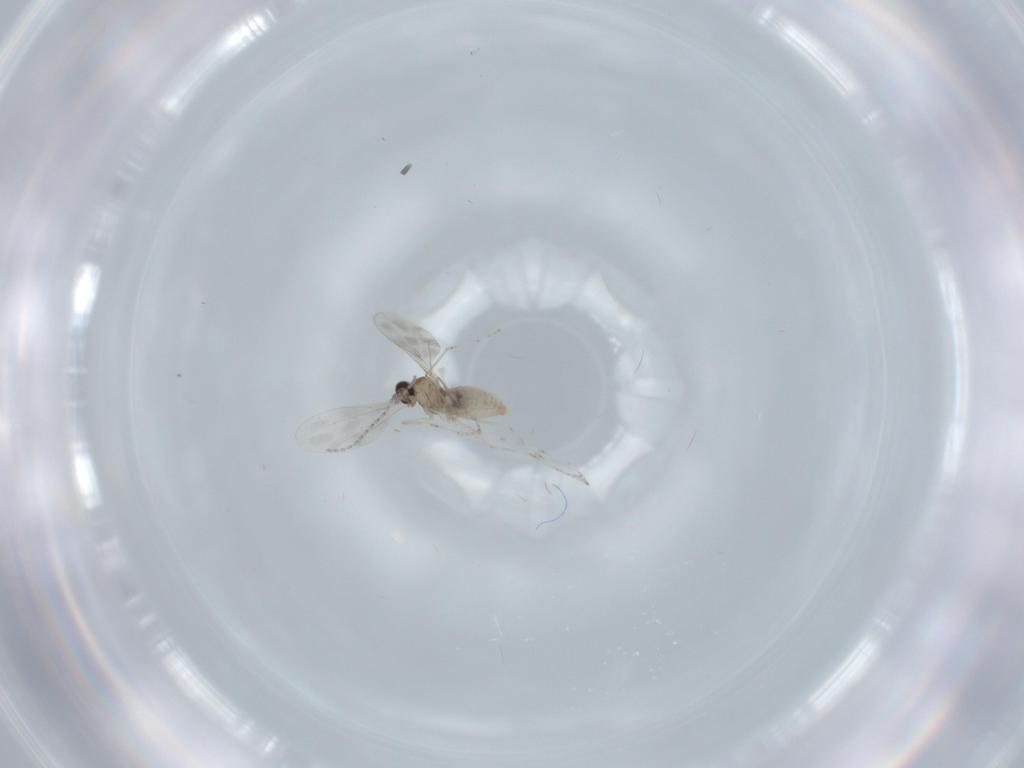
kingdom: Animalia
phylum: Arthropoda
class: Insecta
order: Diptera
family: Cecidomyiidae
